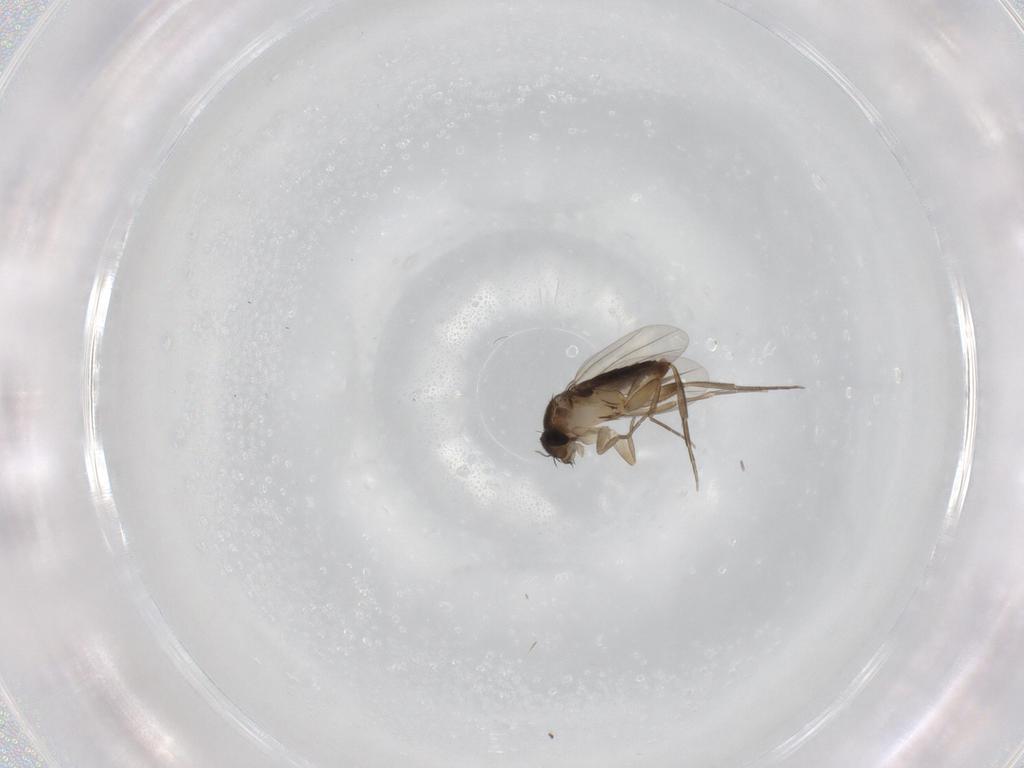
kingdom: Animalia
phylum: Arthropoda
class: Insecta
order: Diptera
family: Phoridae
